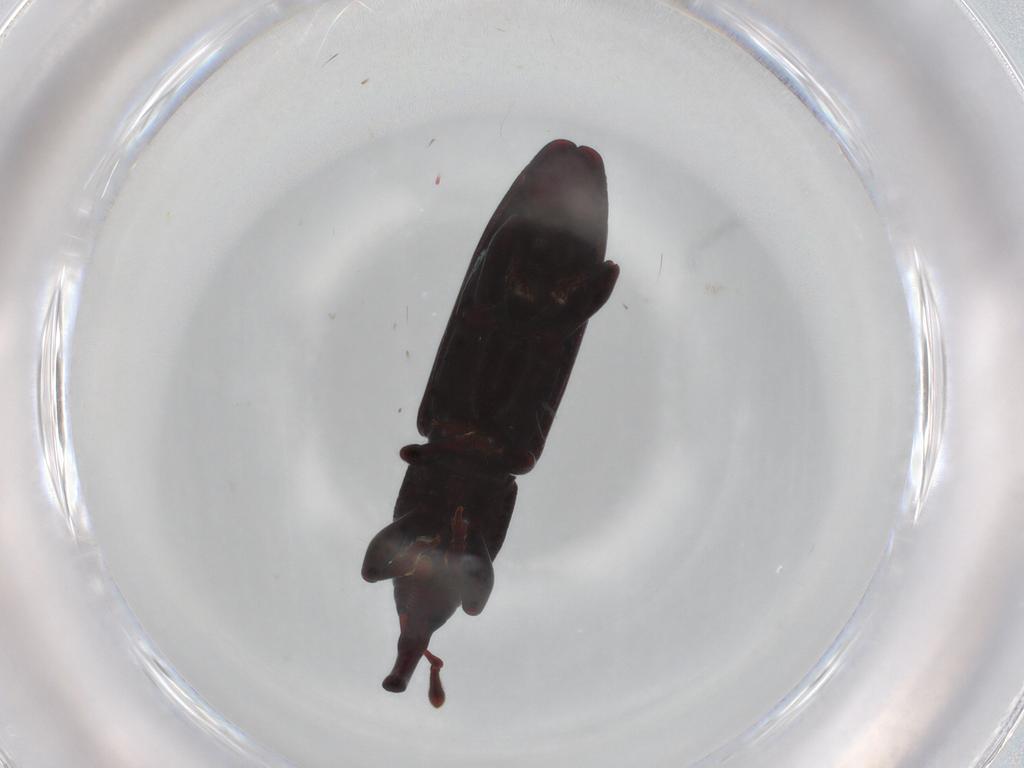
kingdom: Animalia
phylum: Arthropoda
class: Insecta
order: Coleoptera
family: Curculionidae
